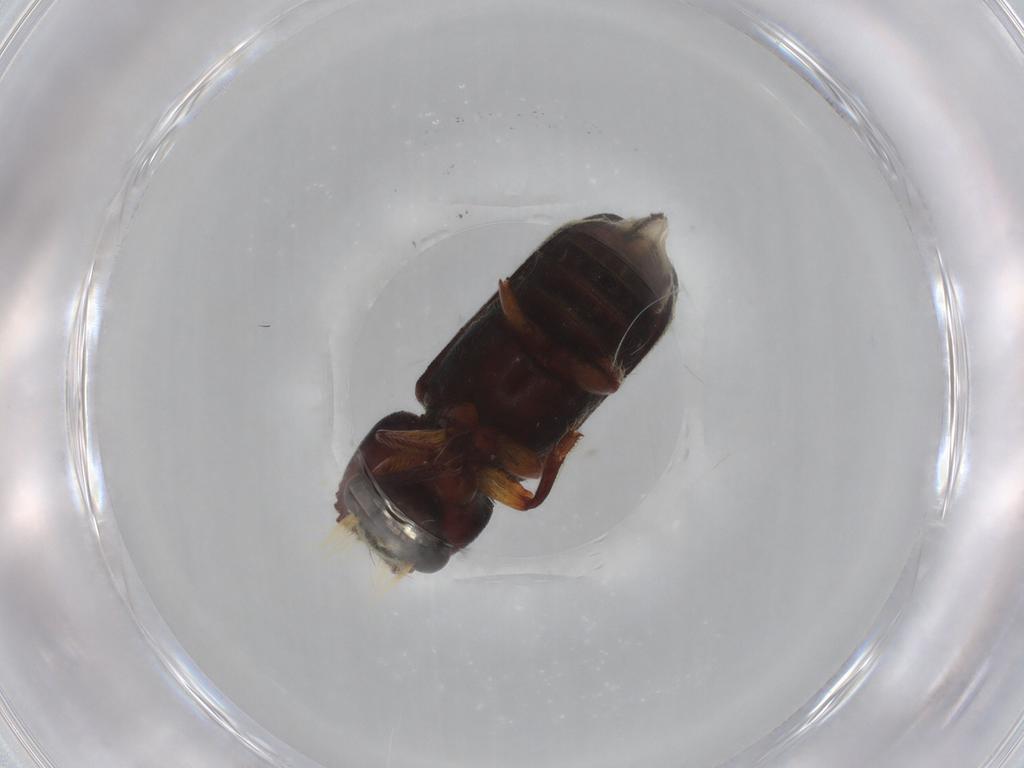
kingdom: Animalia
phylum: Arthropoda
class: Insecta
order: Coleoptera
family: Bostrichidae
